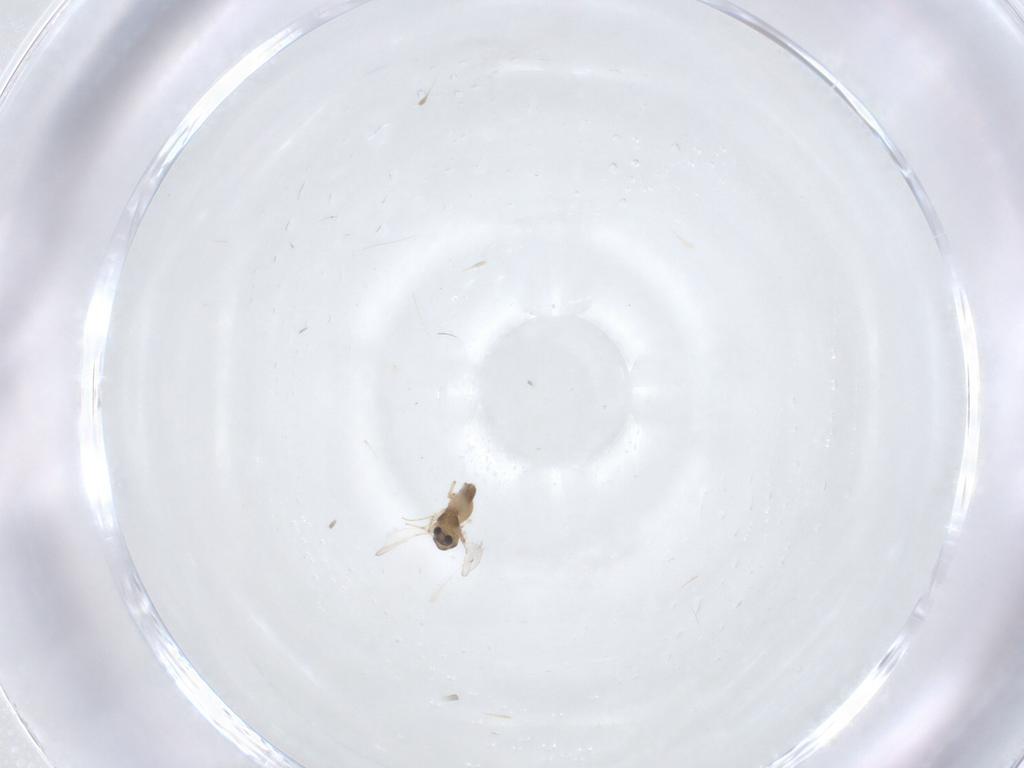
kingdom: Animalia
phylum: Arthropoda
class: Insecta
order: Diptera
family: Chironomidae
